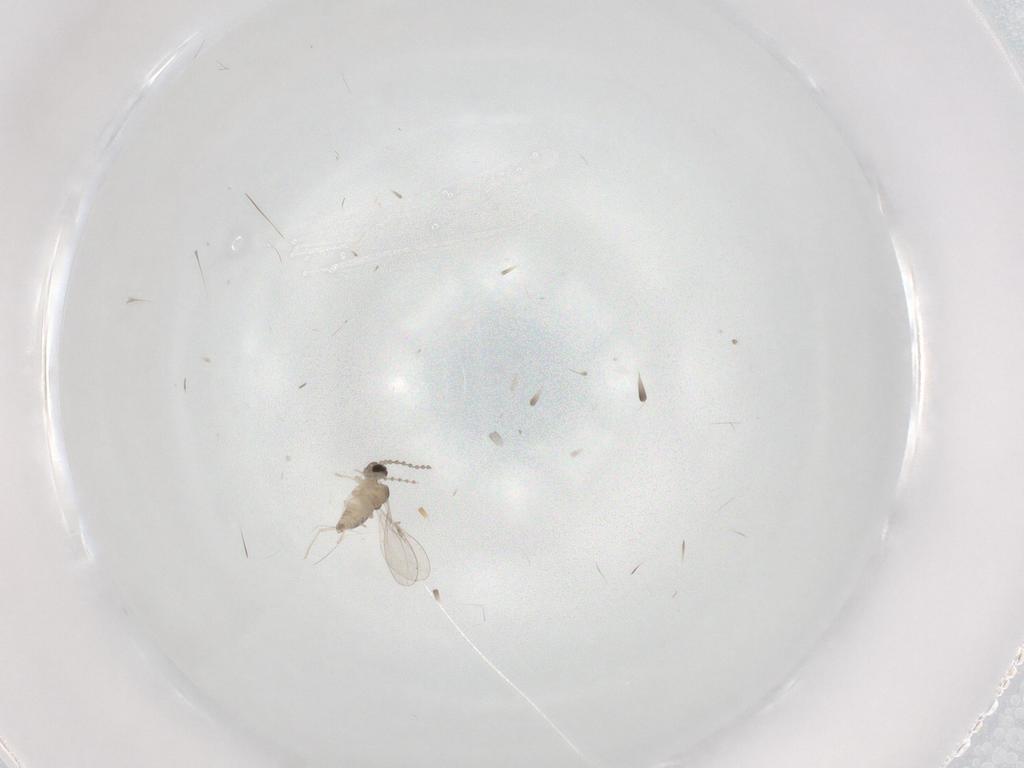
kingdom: Animalia
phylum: Arthropoda
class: Insecta
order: Diptera
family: Cecidomyiidae
